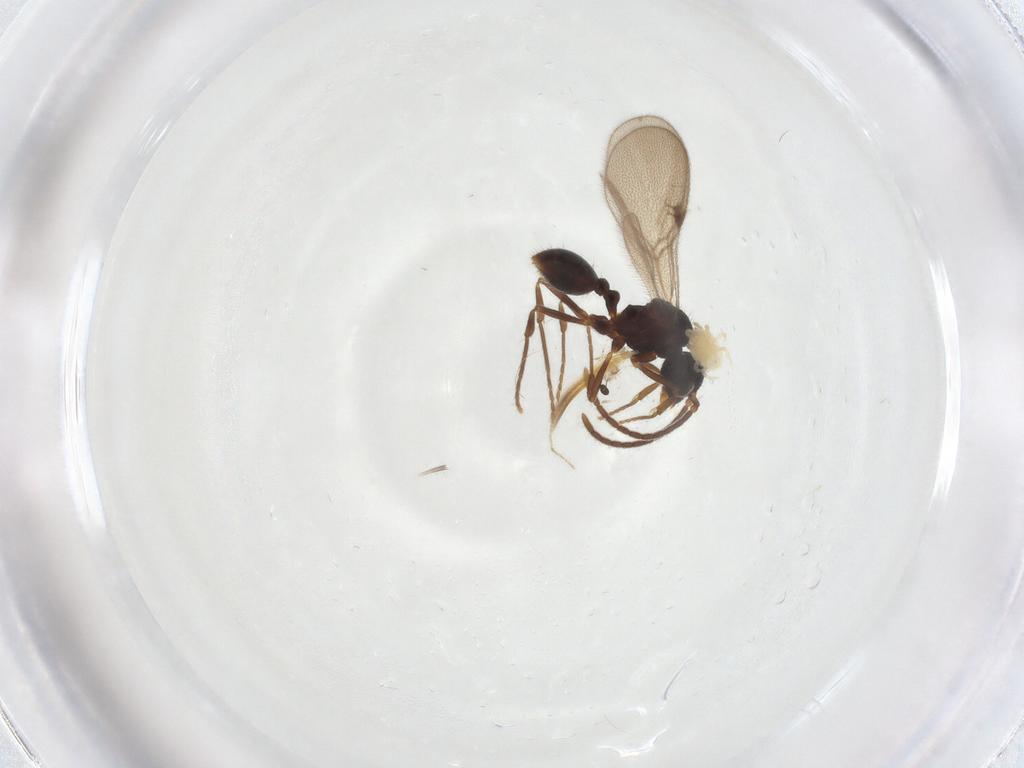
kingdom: Animalia
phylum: Arthropoda
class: Insecta
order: Hymenoptera
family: Formicidae
